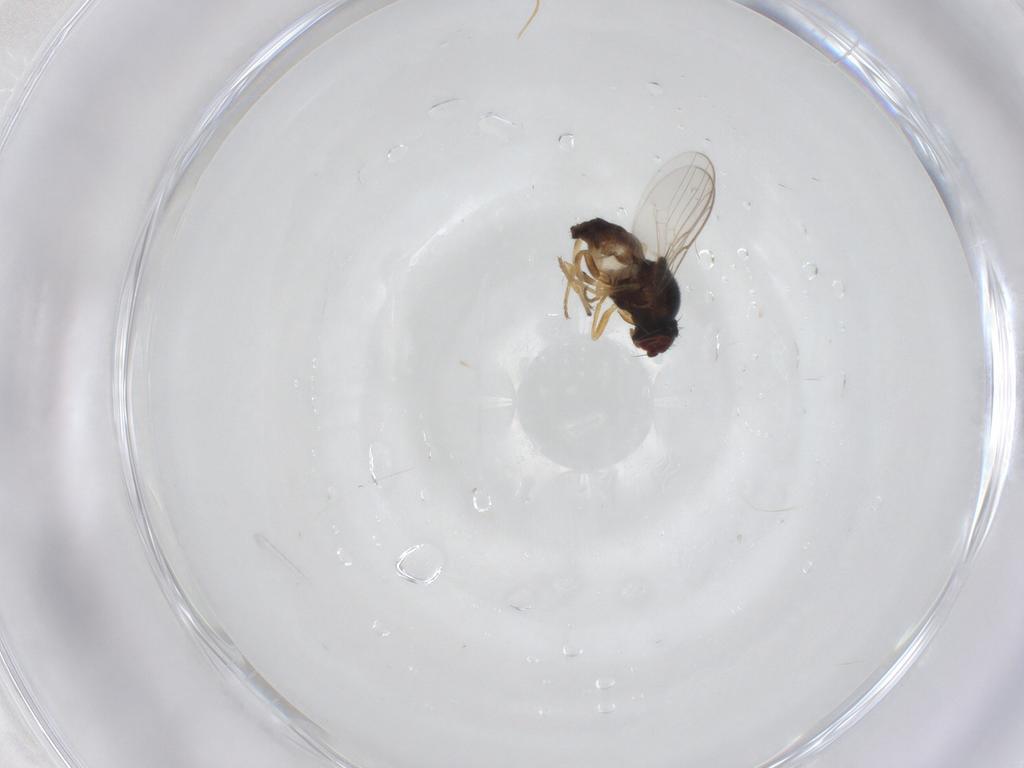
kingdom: Animalia
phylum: Arthropoda
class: Insecta
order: Diptera
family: Chloropidae
